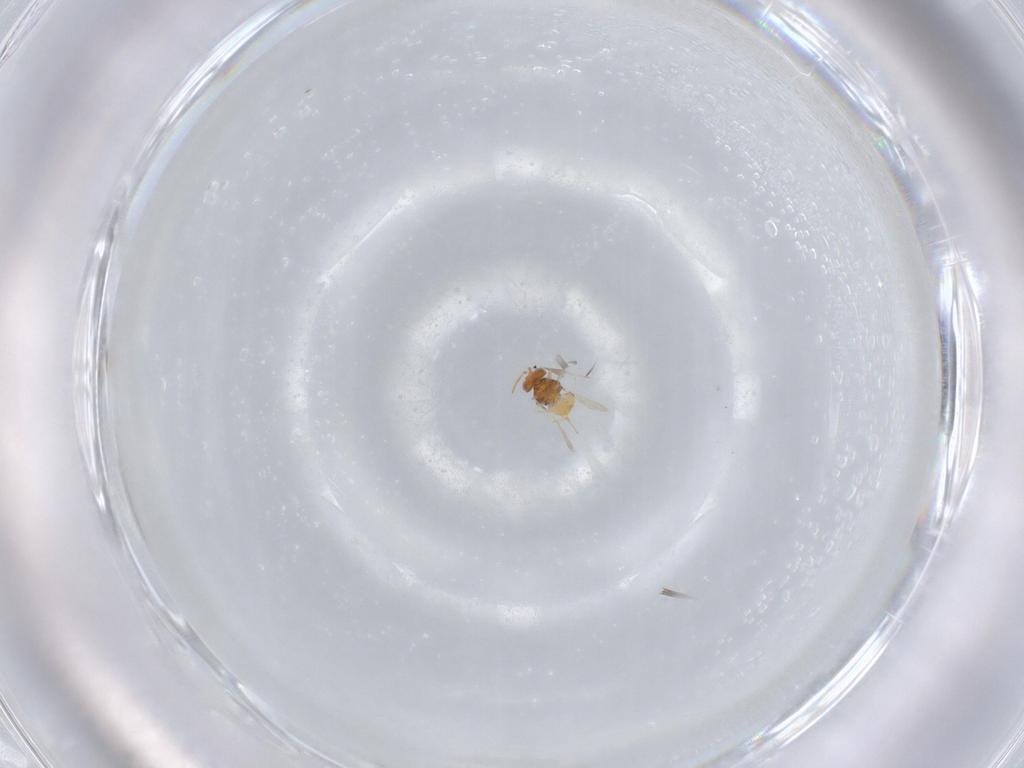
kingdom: Animalia
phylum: Arthropoda
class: Insecta
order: Hymenoptera
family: Aphelinidae
